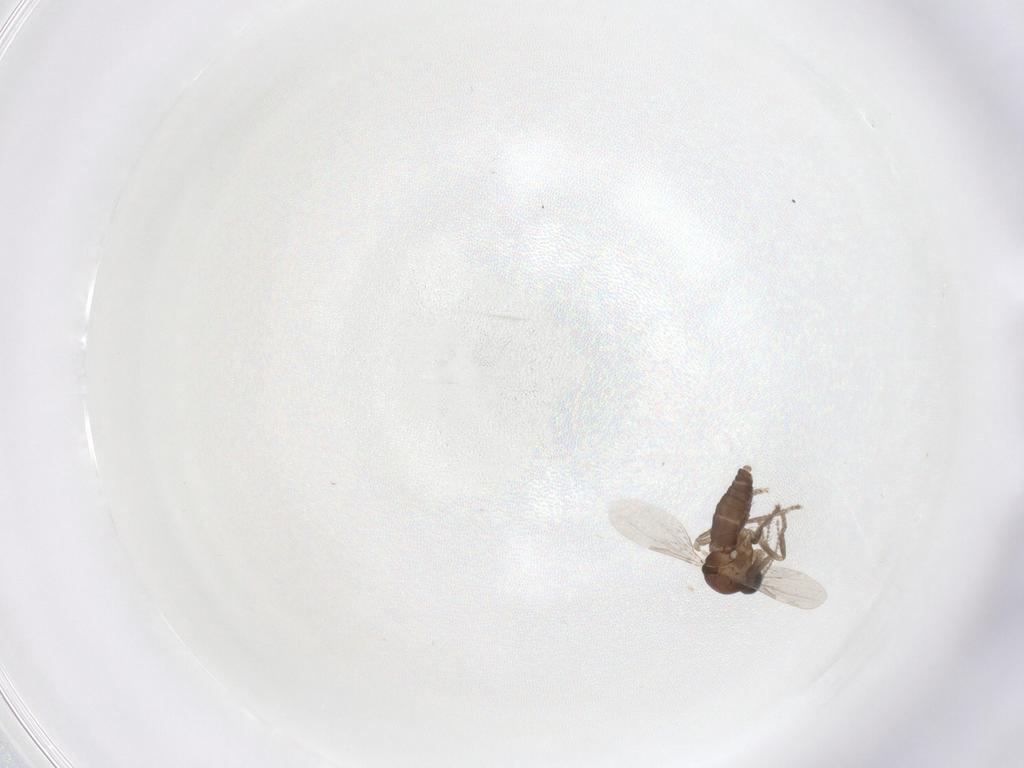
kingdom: Animalia
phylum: Arthropoda
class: Insecta
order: Diptera
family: Ceratopogonidae
